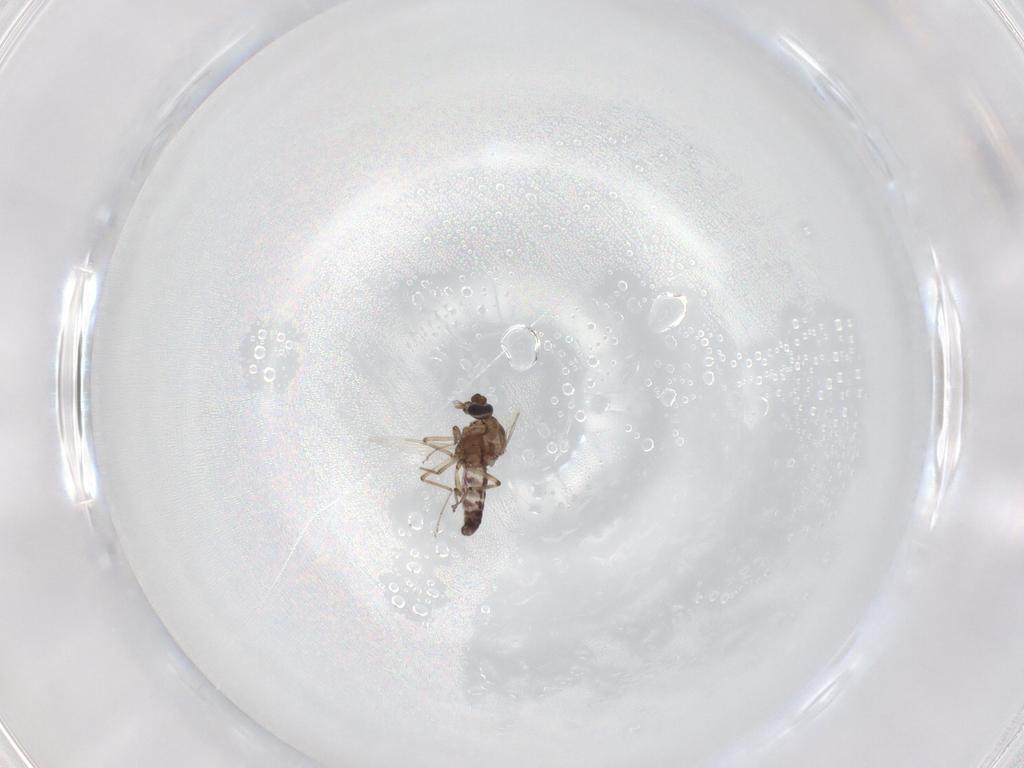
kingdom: Animalia
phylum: Arthropoda
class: Insecta
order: Diptera
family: Ceratopogonidae
